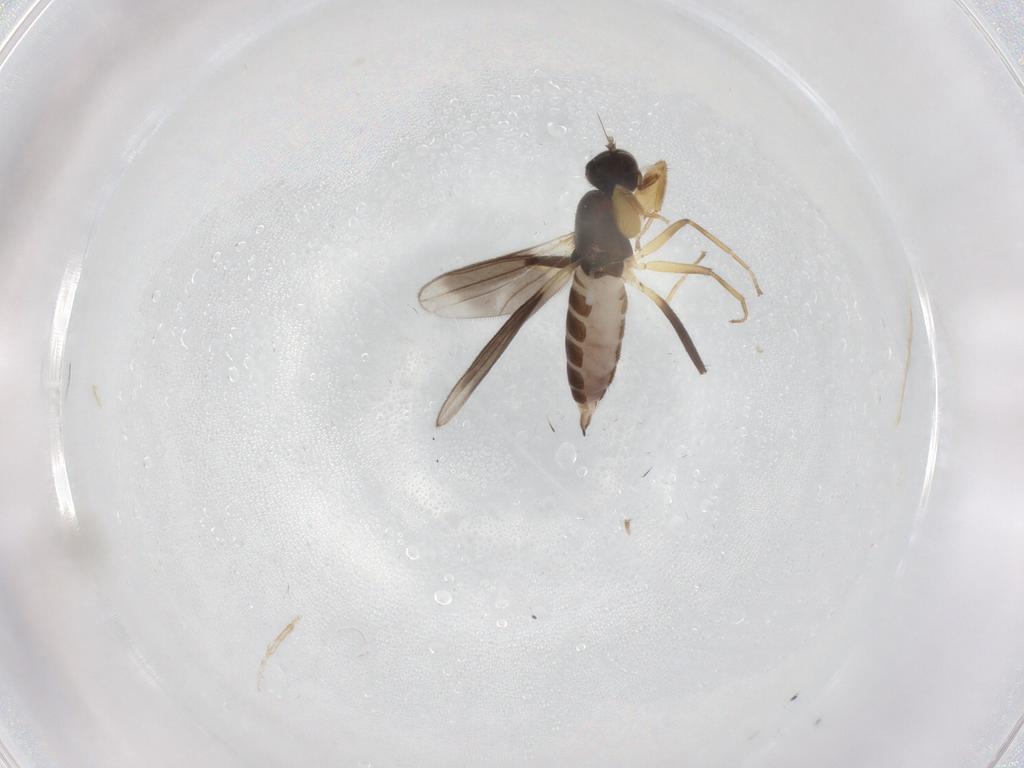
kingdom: Animalia
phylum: Arthropoda
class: Insecta
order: Diptera
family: Hybotidae
